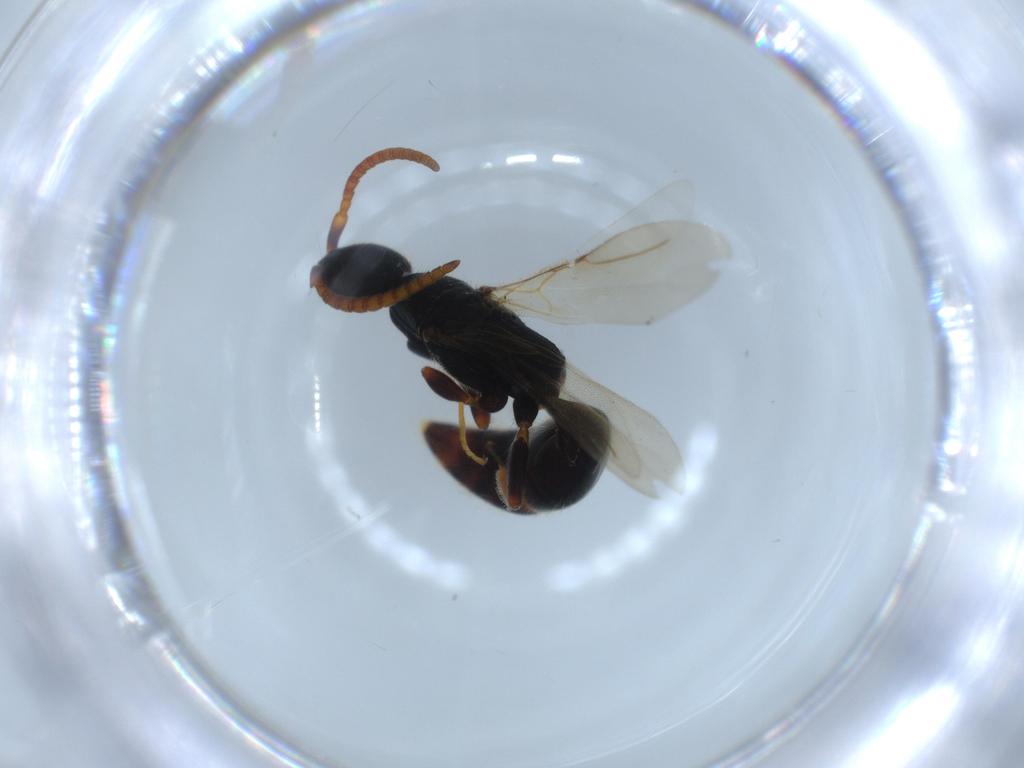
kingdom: Animalia
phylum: Arthropoda
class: Insecta
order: Hymenoptera
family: Bethylidae
